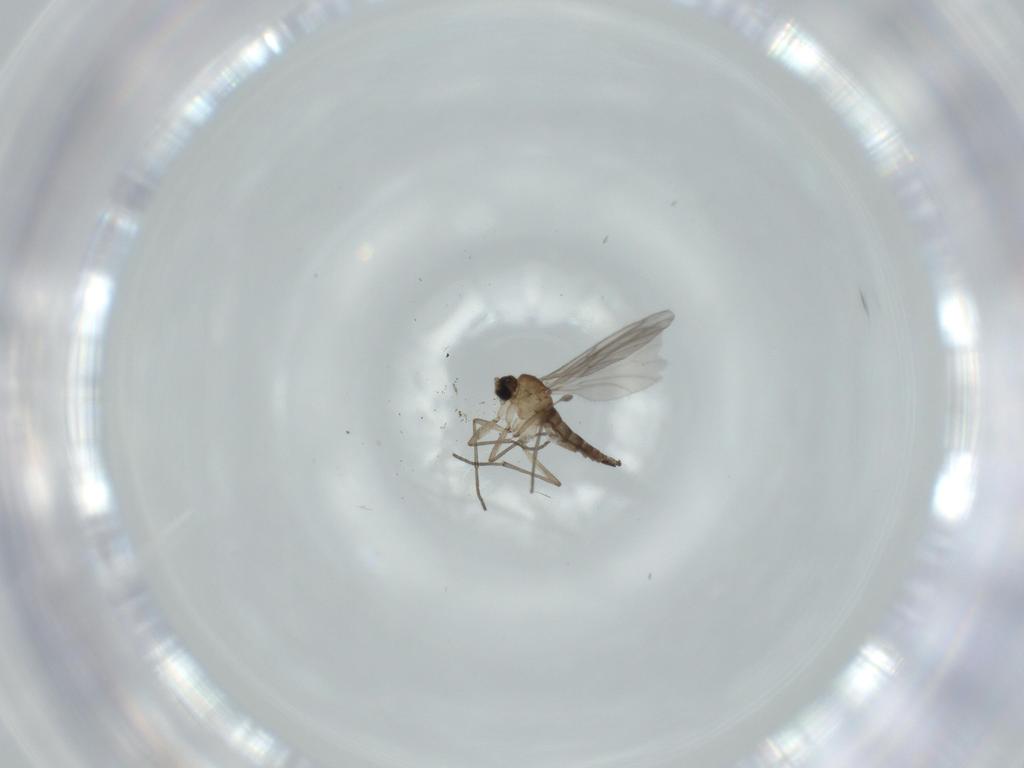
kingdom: Animalia
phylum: Arthropoda
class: Insecta
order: Diptera
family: Sciaridae
